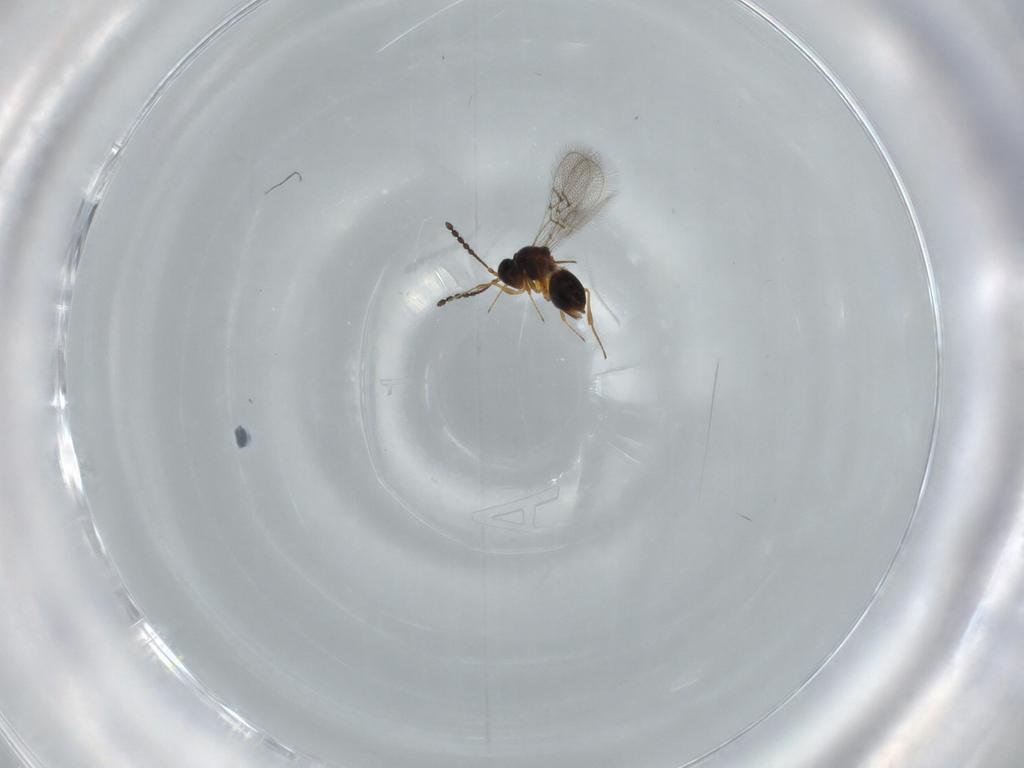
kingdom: Animalia
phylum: Arthropoda
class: Insecta
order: Hymenoptera
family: Figitidae
